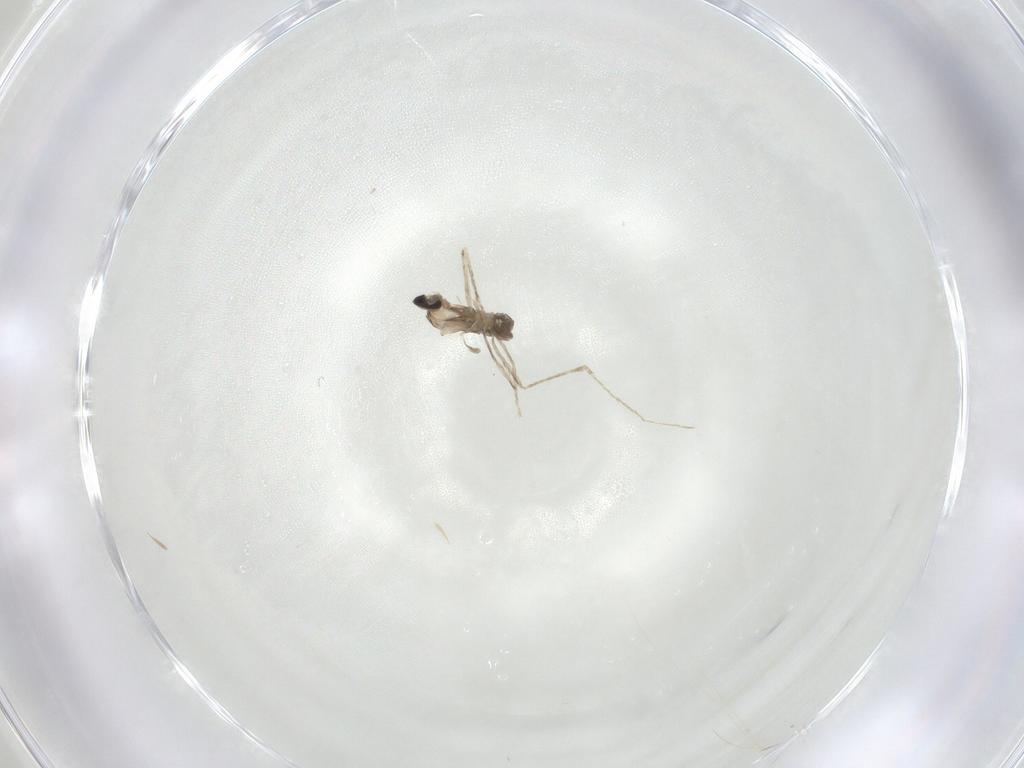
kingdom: Animalia
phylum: Arthropoda
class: Insecta
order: Diptera
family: Cecidomyiidae
